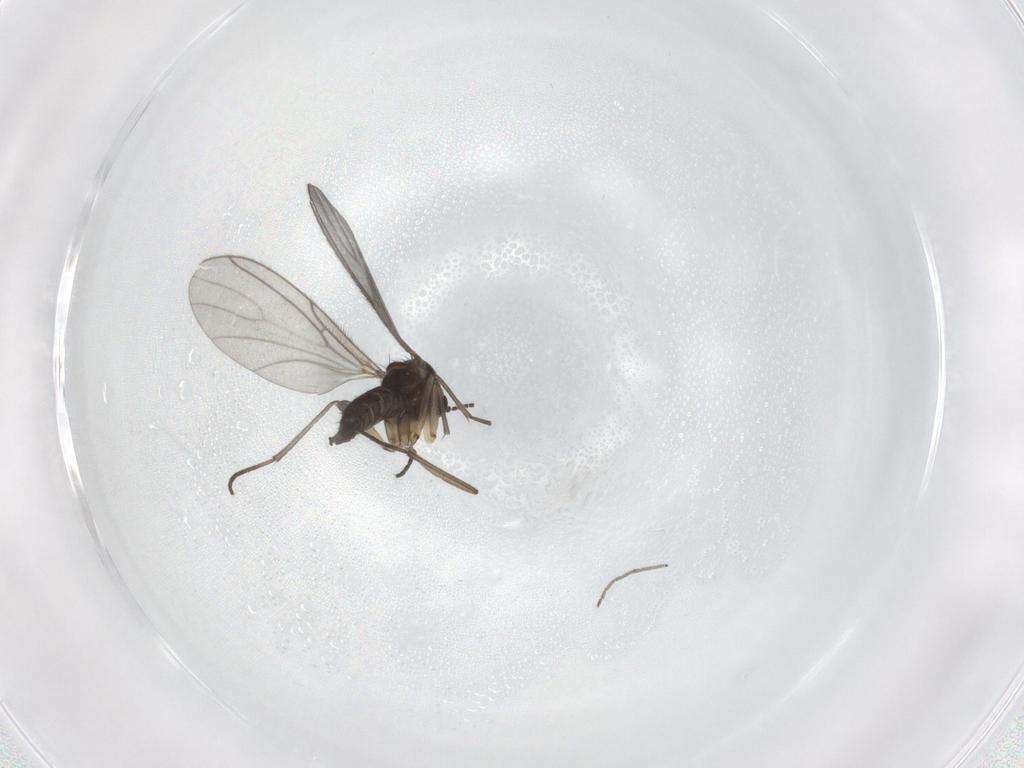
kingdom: Animalia
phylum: Arthropoda
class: Insecta
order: Diptera
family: Chironomidae
